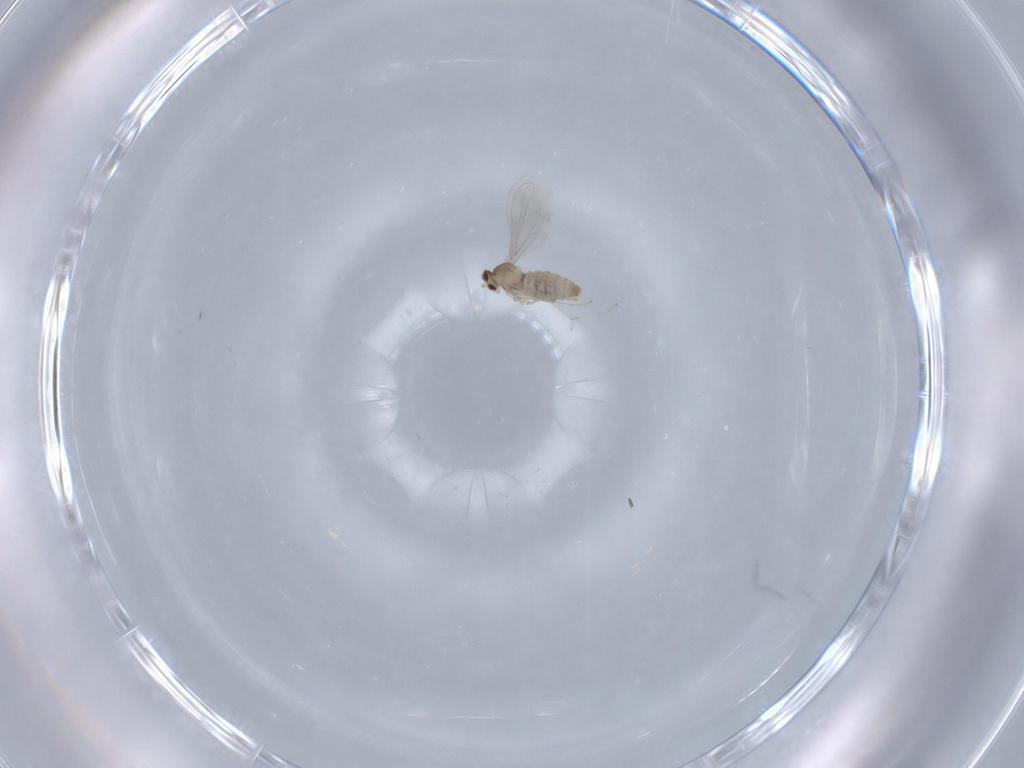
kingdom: Animalia
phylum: Arthropoda
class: Insecta
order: Diptera
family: Cecidomyiidae
